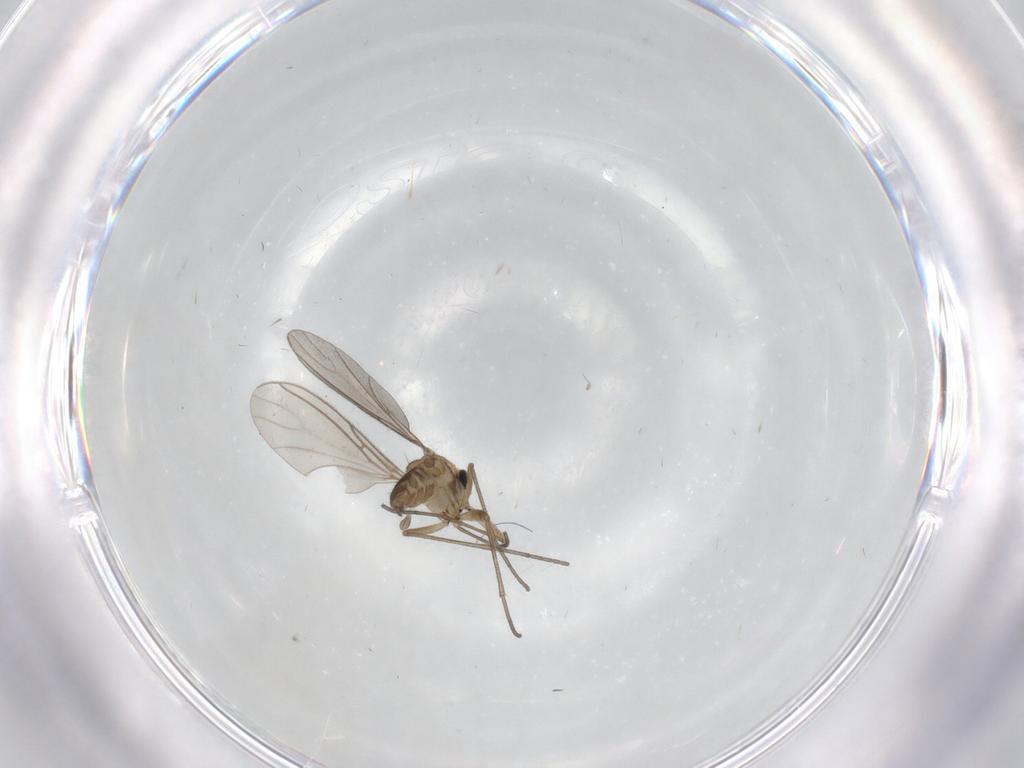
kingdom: Animalia
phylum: Arthropoda
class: Insecta
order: Diptera
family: Sciaridae
